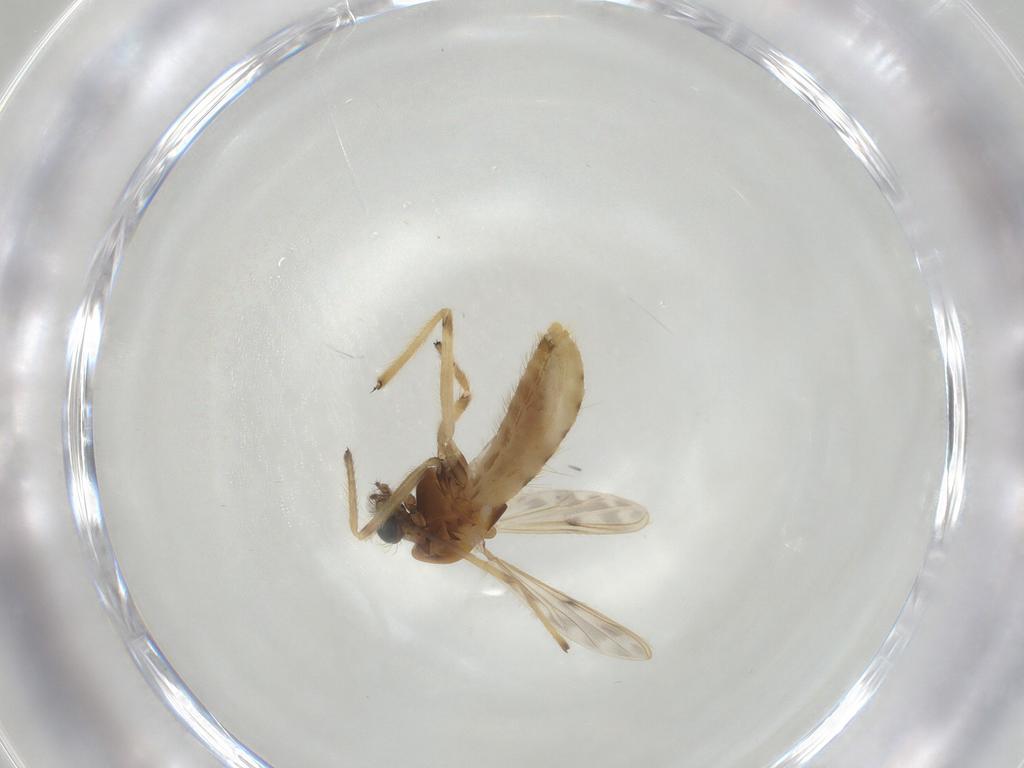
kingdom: Animalia
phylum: Arthropoda
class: Insecta
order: Diptera
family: Chironomidae
